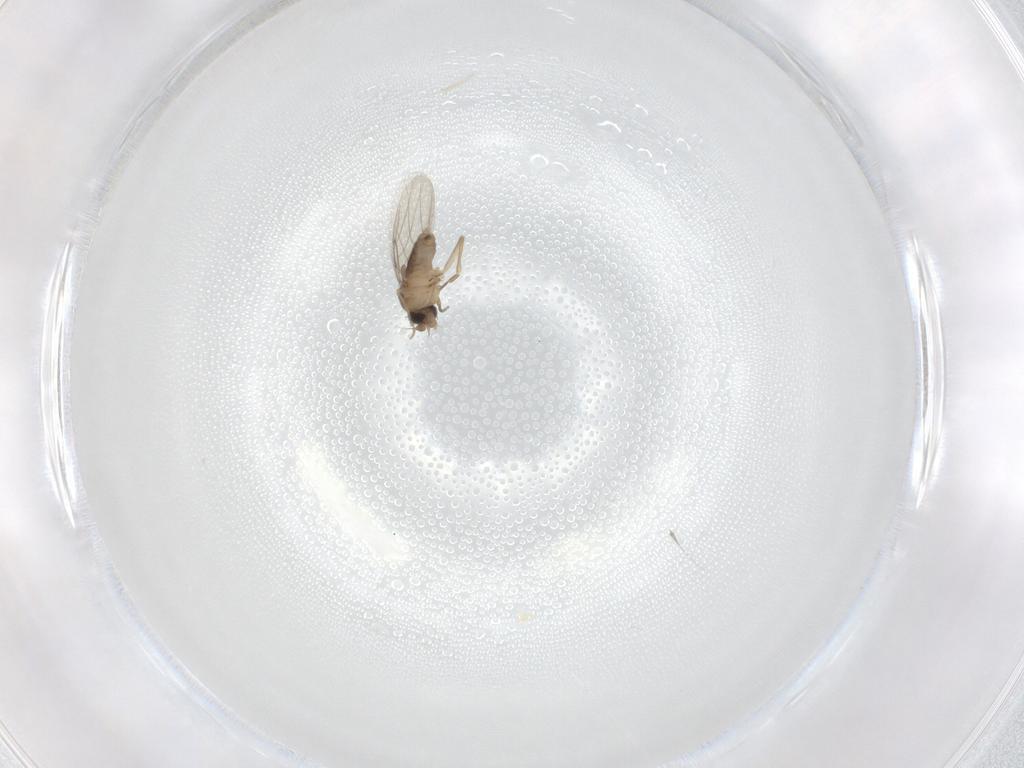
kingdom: Animalia
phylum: Arthropoda
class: Insecta
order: Diptera
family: Phoridae
